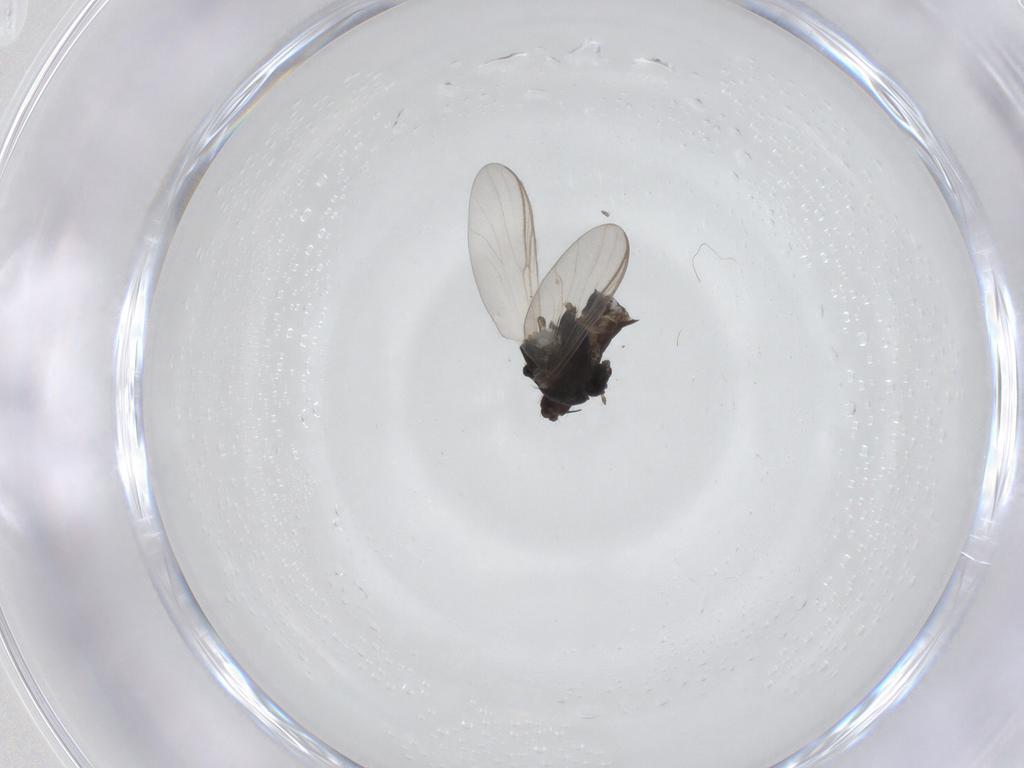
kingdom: Animalia
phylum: Arthropoda
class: Insecta
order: Diptera
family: Chironomidae
